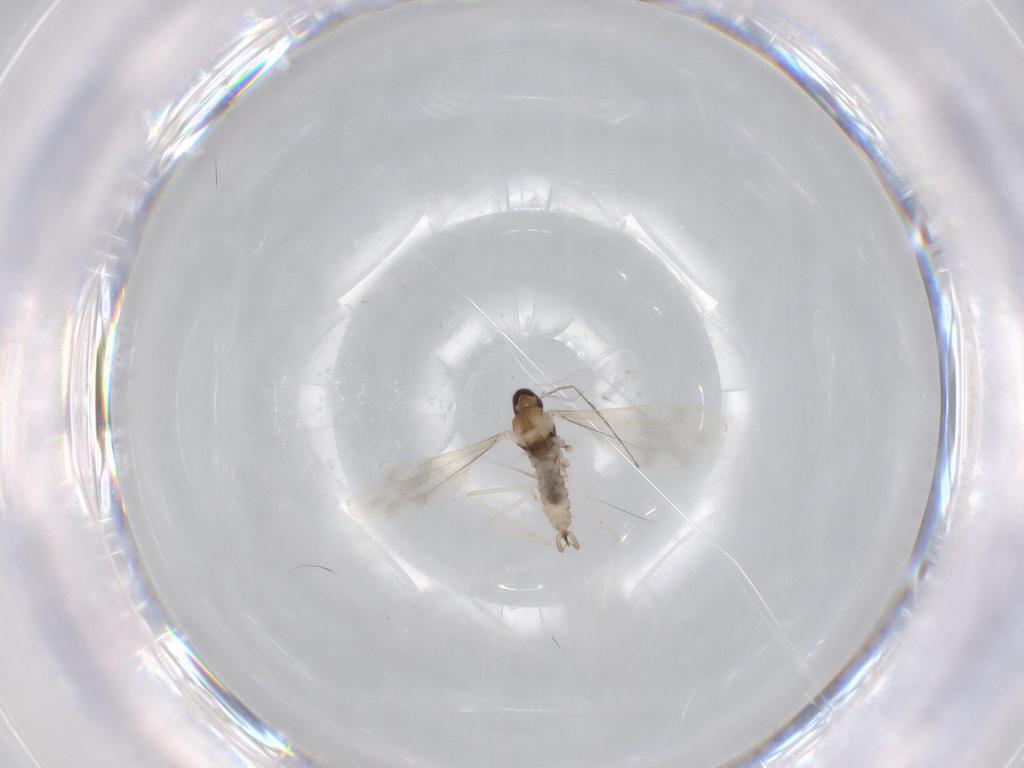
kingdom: Animalia
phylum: Arthropoda
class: Insecta
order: Diptera
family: Cecidomyiidae
